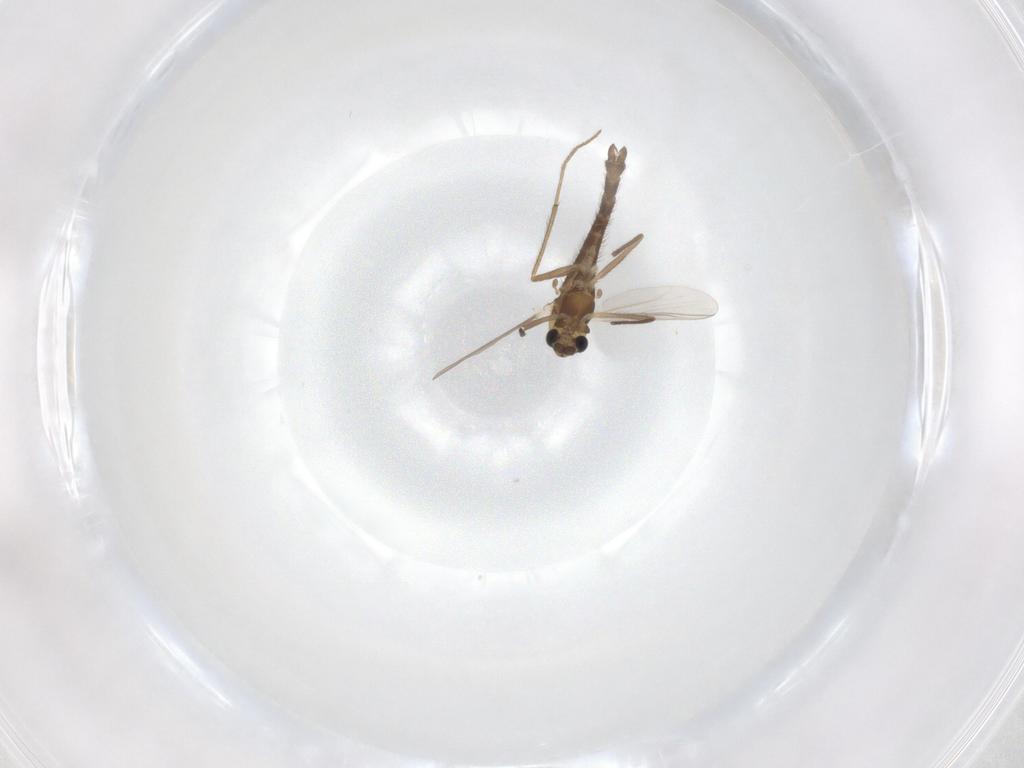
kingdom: Animalia
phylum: Arthropoda
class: Insecta
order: Diptera
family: Chironomidae
